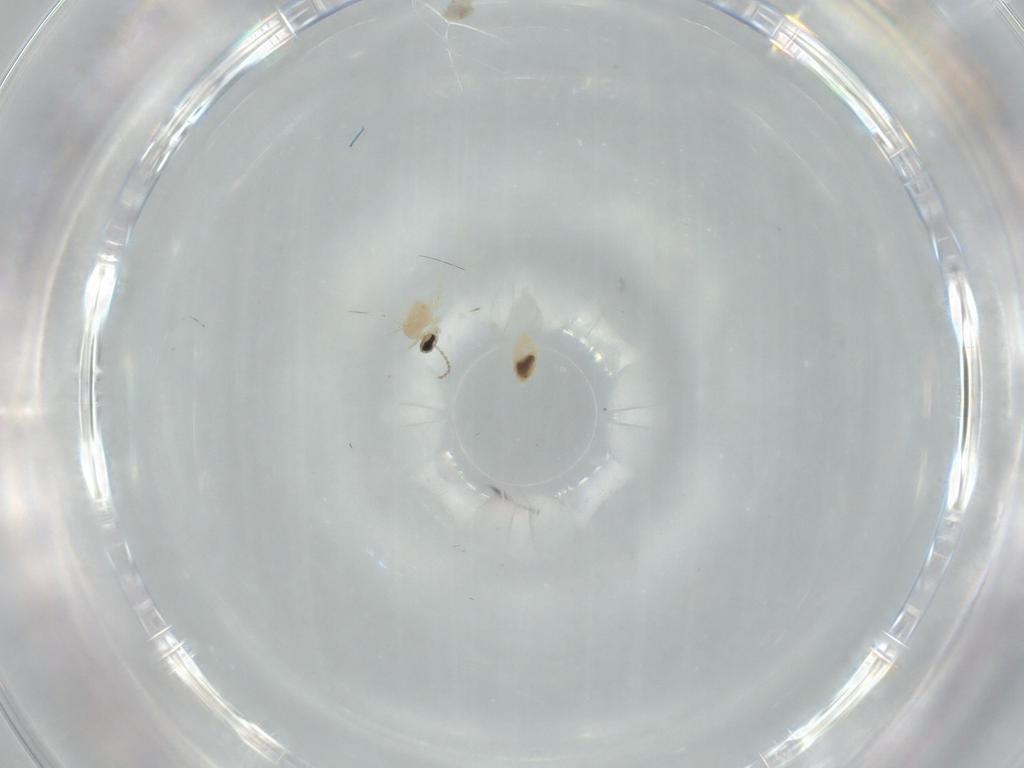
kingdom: Animalia
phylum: Arthropoda
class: Insecta
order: Diptera
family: Cecidomyiidae
